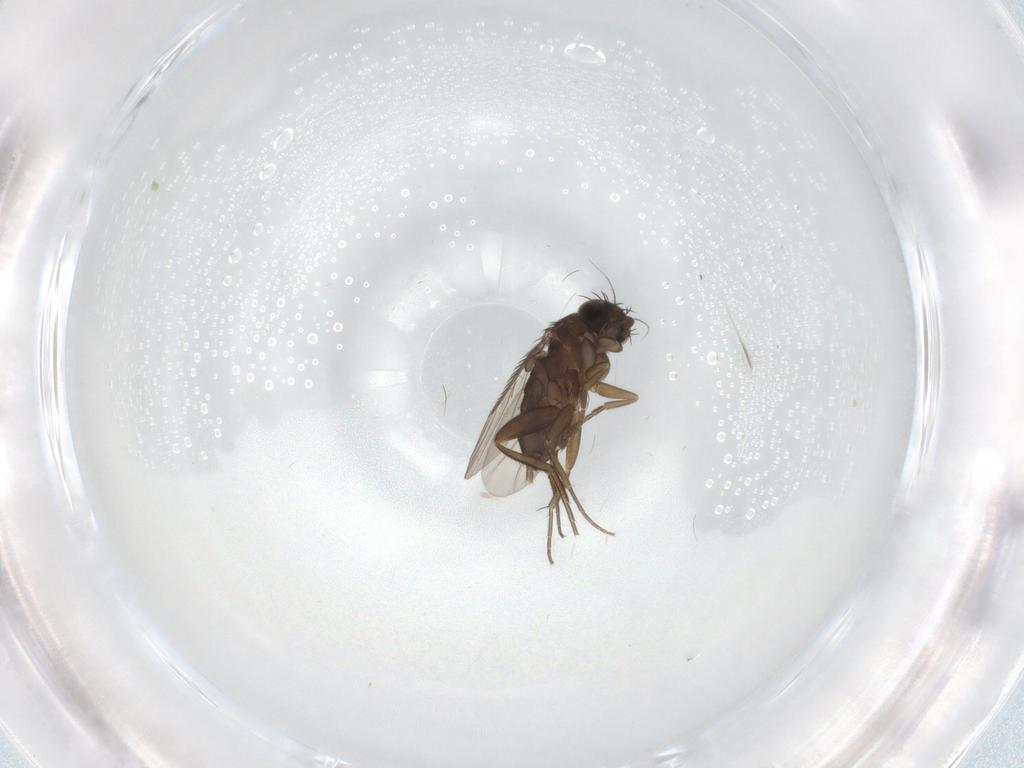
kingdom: Animalia
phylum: Arthropoda
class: Insecta
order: Diptera
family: Phoridae
